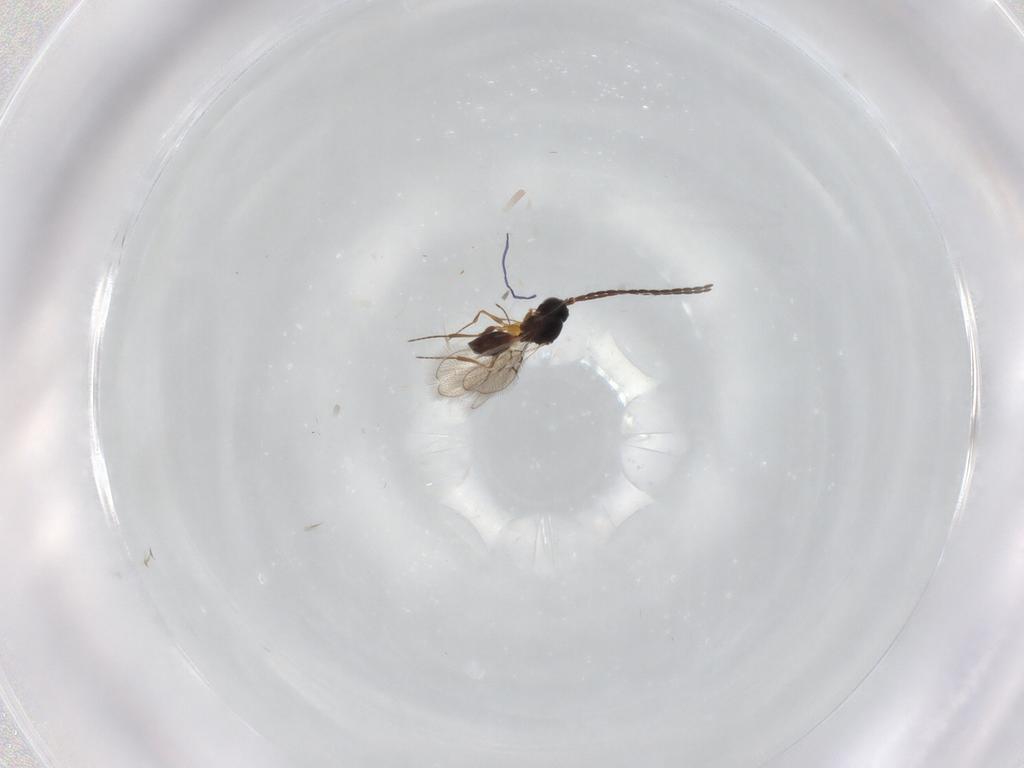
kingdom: Animalia
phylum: Arthropoda
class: Insecta
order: Hymenoptera
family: Figitidae
